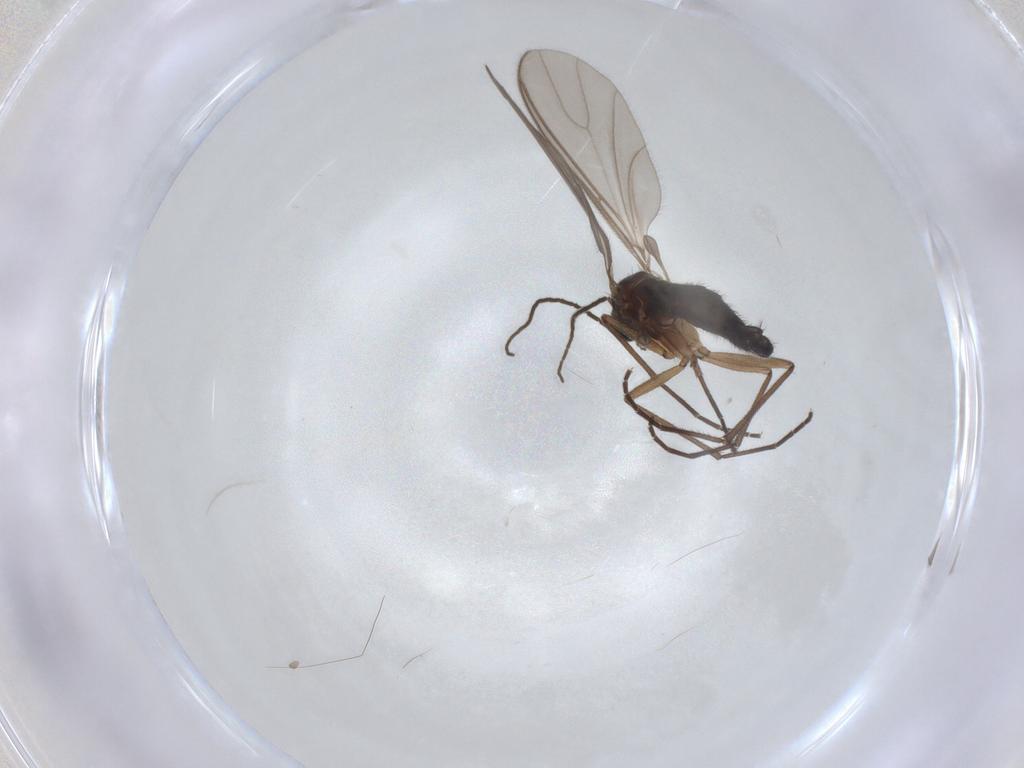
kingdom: Animalia
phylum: Arthropoda
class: Insecta
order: Diptera
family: Sciaridae
